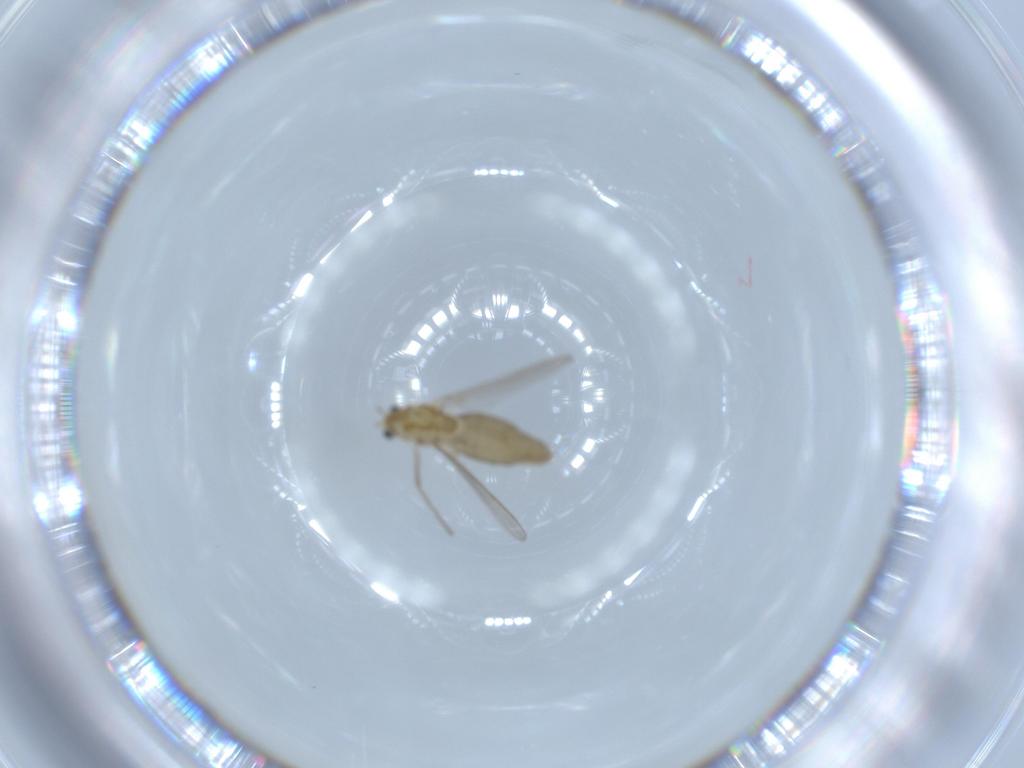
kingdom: Animalia
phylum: Arthropoda
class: Insecta
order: Diptera
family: Chironomidae
